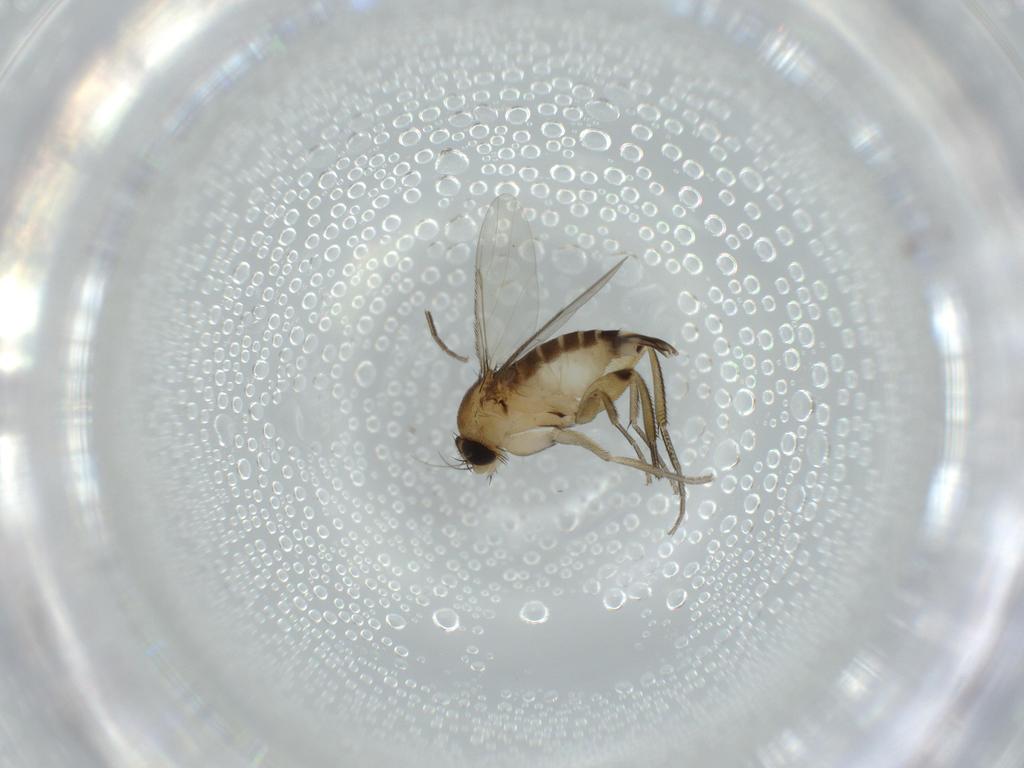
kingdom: Animalia
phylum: Arthropoda
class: Insecta
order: Diptera
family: Phoridae
